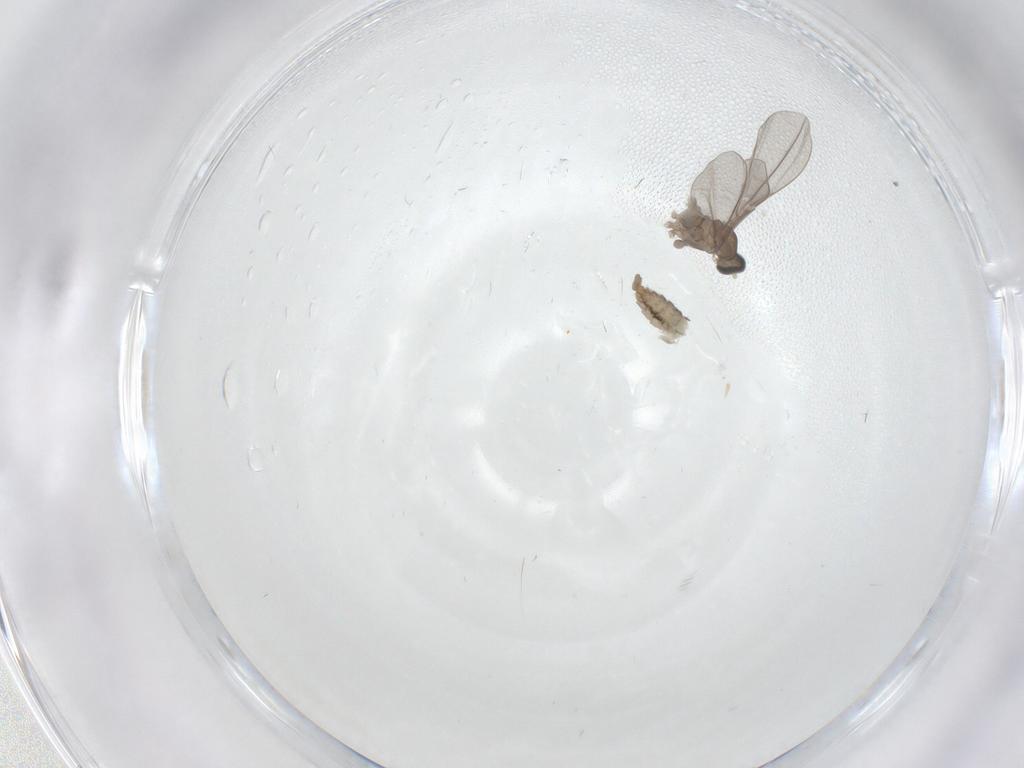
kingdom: Animalia
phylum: Arthropoda
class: Insecta
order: Diptera
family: Cecidomyiidae
